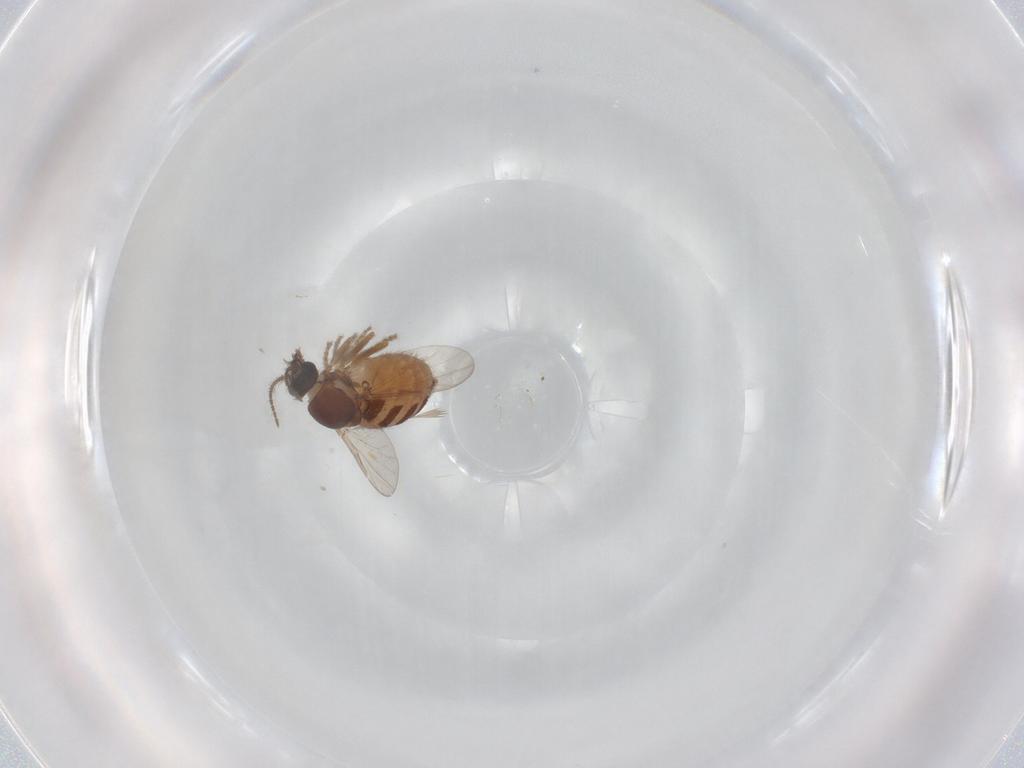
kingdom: Animalia
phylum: Arthropoda
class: Insecta
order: Diptera
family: Ceratopogonidae
